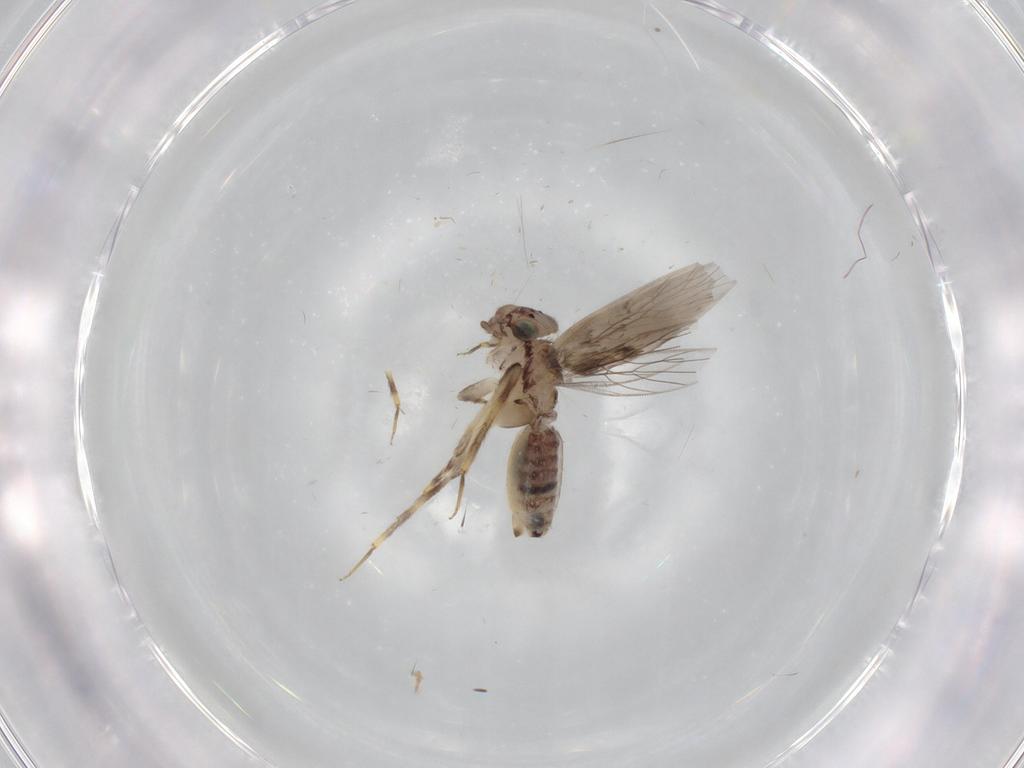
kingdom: Animalia
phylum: Arthropoda
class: Insecta
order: Psocodea
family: Lepidopsocidae
